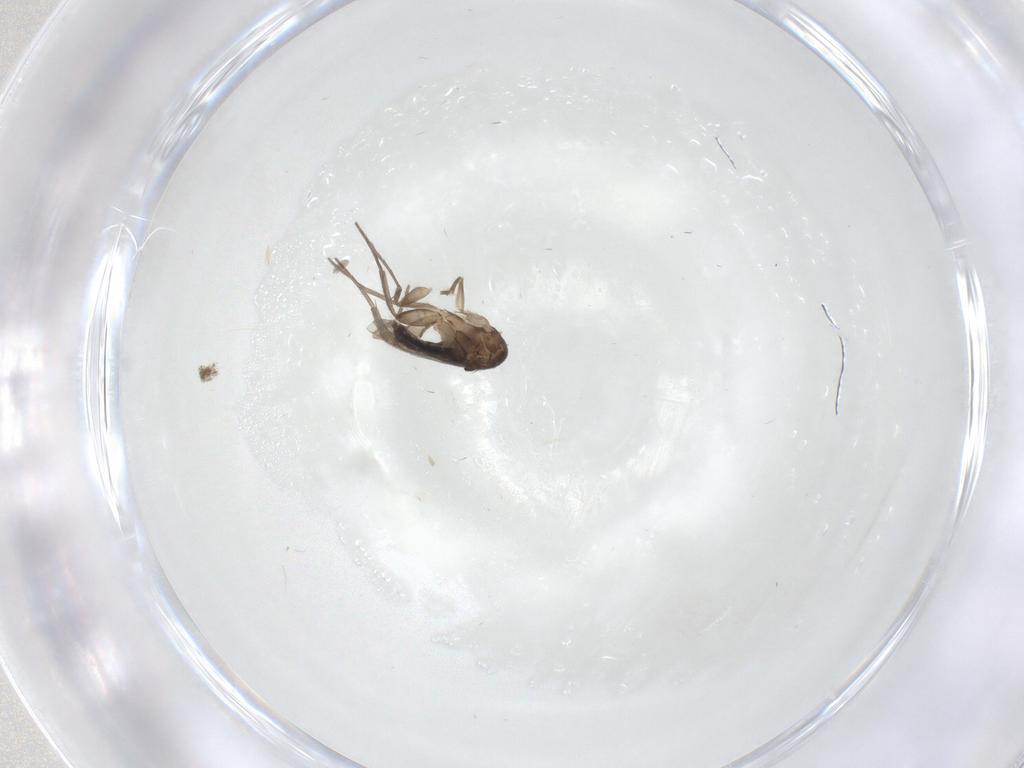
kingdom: Animalia
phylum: Arthropoda
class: Insecta
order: Diptera
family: Phoridae
